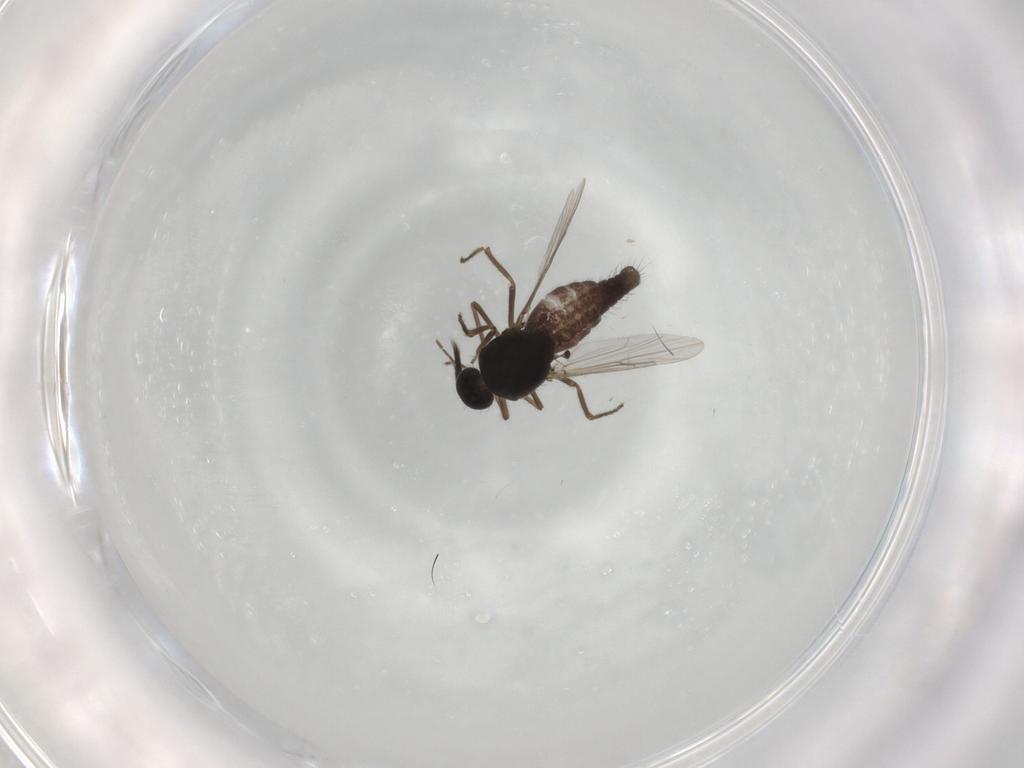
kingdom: Animalia
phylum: Arthropoda
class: Insecta
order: Diptera
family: Ceratopogonidae
